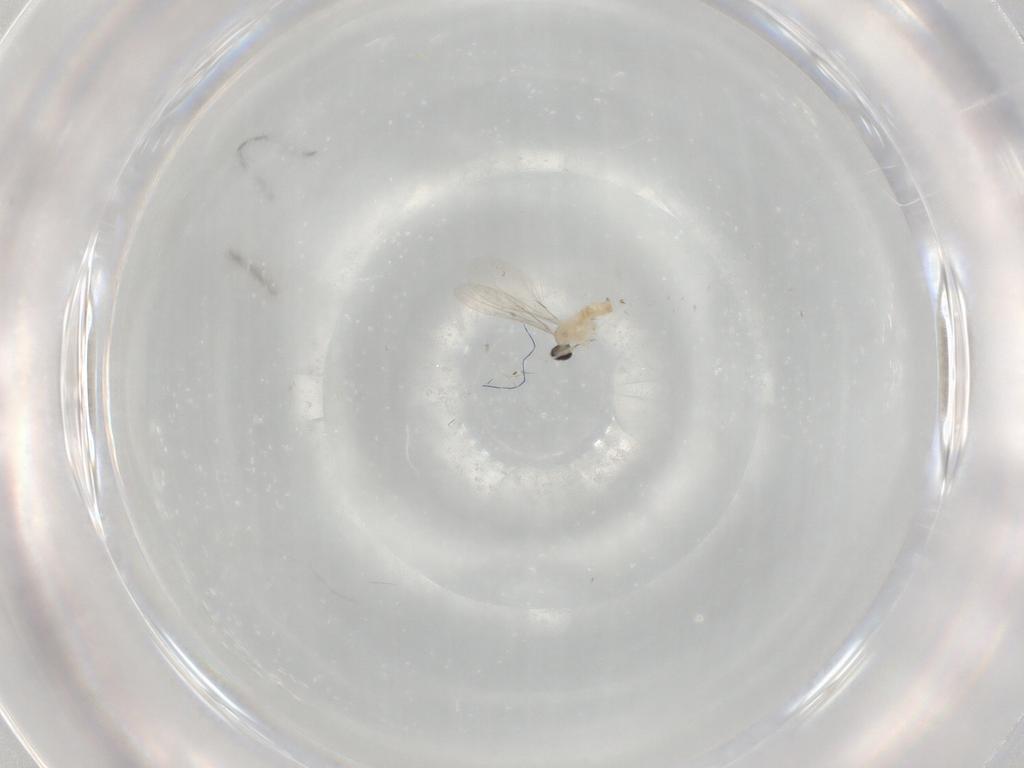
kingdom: Animalia
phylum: Arthropoda
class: Insecta
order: Diptera
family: Cecidomyiidae
